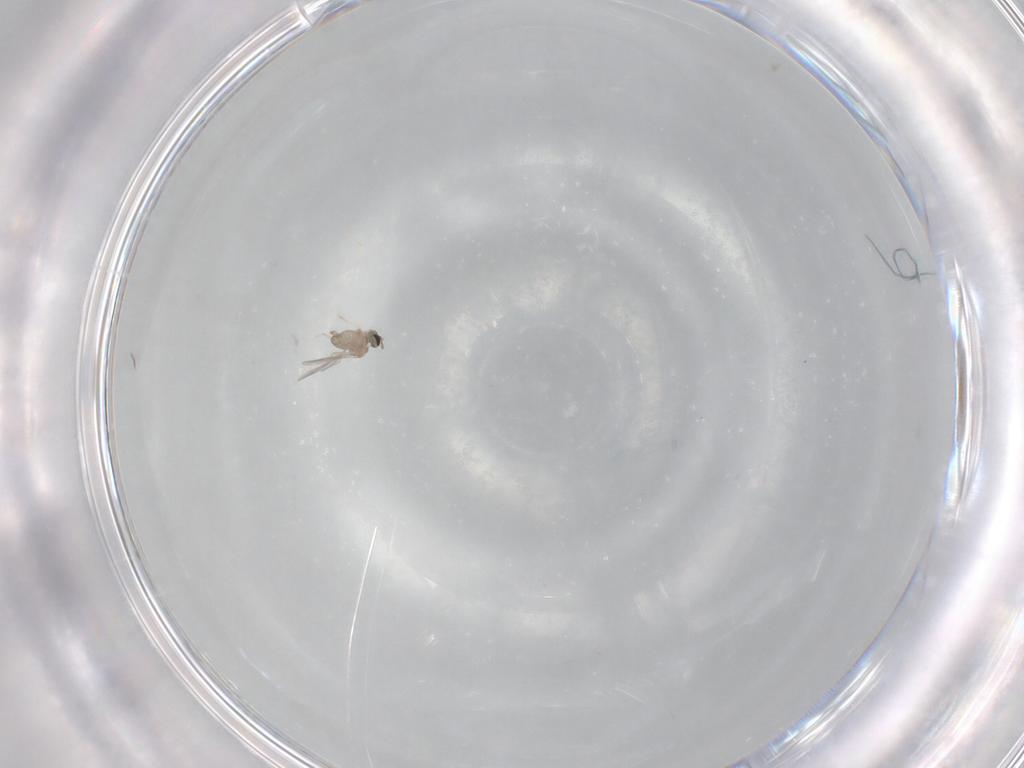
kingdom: Animalia
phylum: Arthropoda
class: Insecta
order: Diptera
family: Cecidomyiidae
